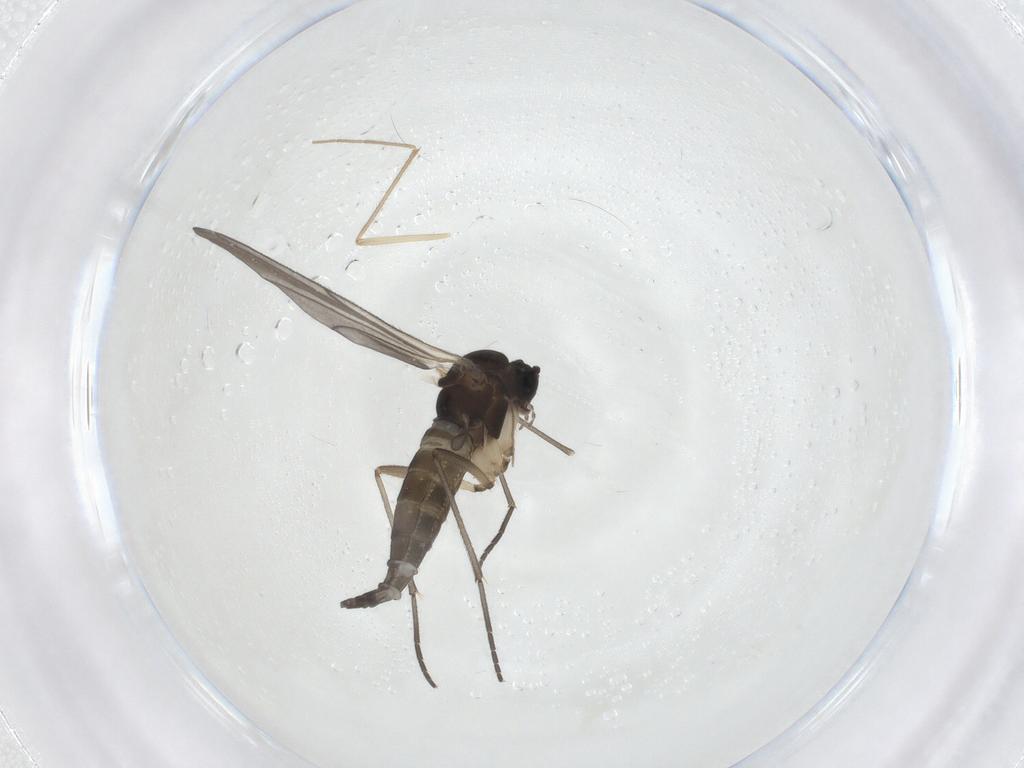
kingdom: Animalia
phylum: Arthropoda
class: Insecta
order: Diptera
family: Sciaridae
